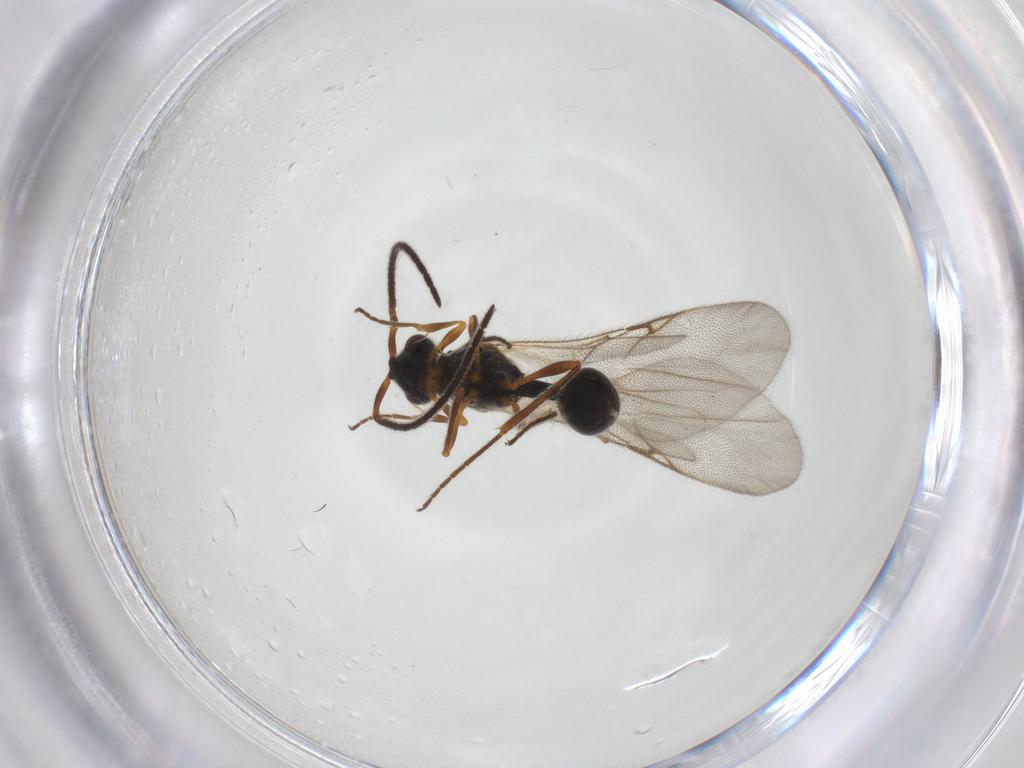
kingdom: Animalia
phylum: Arthropoda
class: Insecta
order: Hymenoptera
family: Diapriidae
